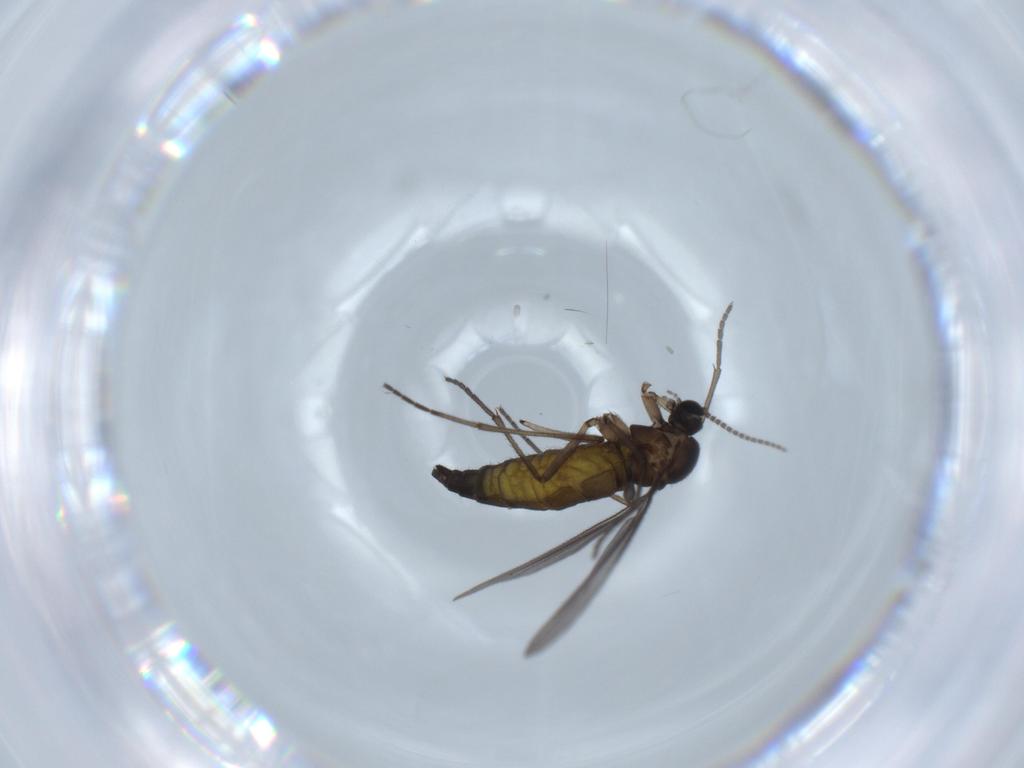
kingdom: Animalia
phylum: Arthropoda
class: Insecta
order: Diptera
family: Sciaridae
